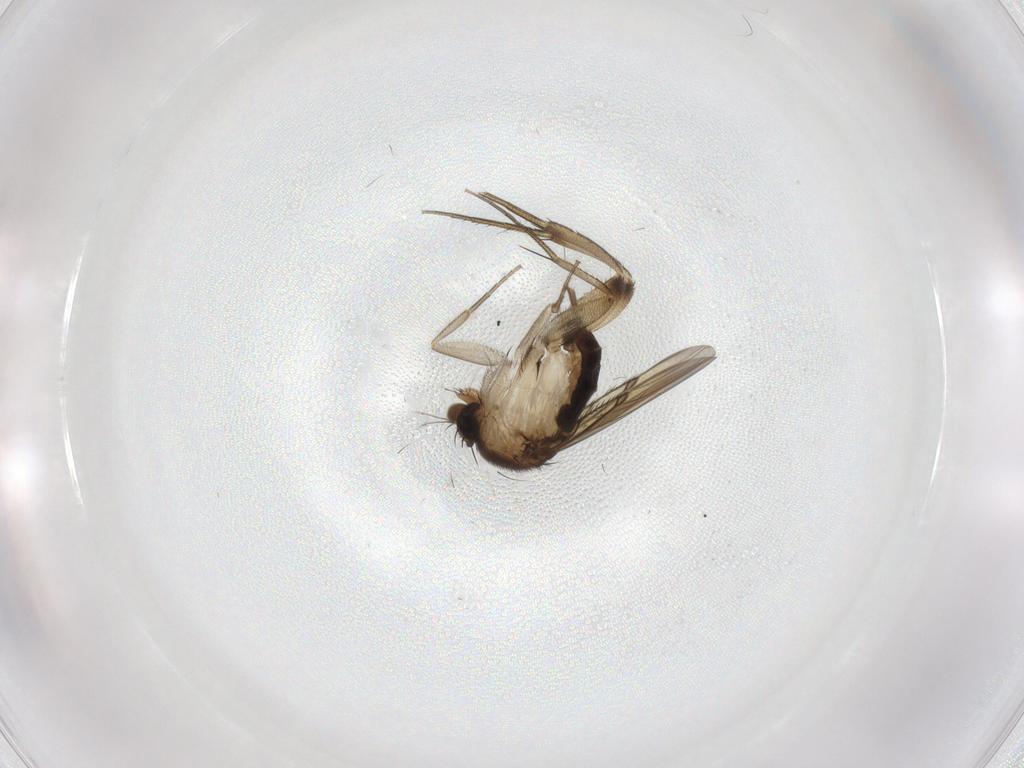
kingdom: Animalia
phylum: Arthropoda
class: Insecta
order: Diptera
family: Phoridae
